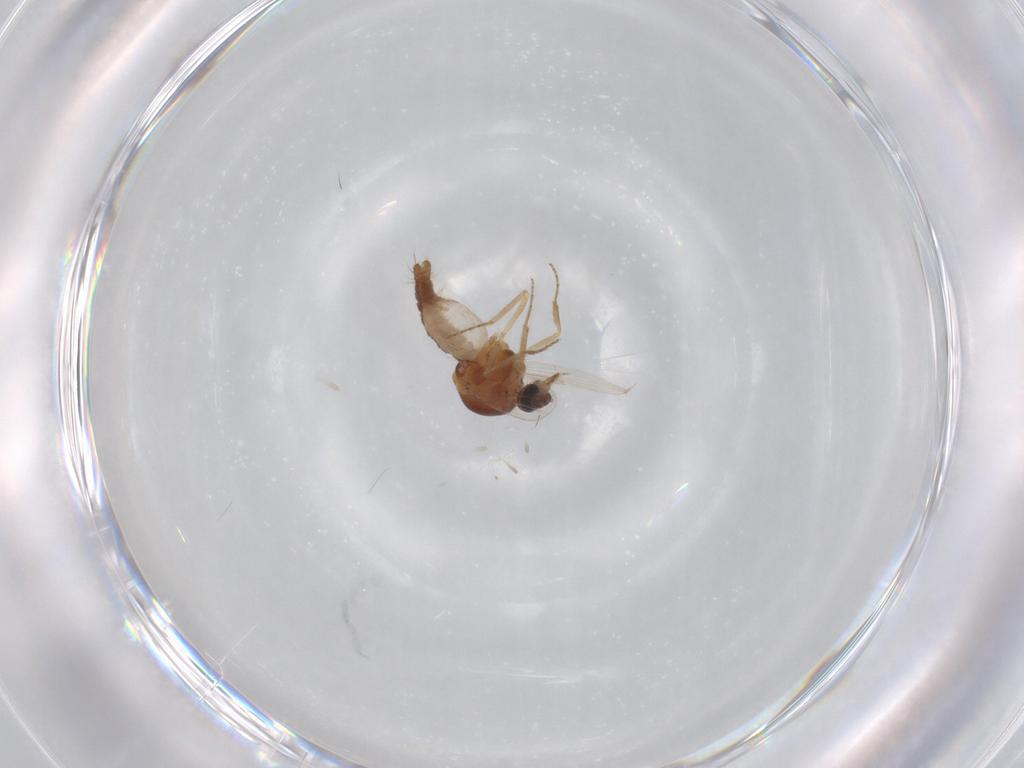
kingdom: Animalia
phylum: Arthropoda
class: Insecta
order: Diptera
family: Ceratopogonidae
